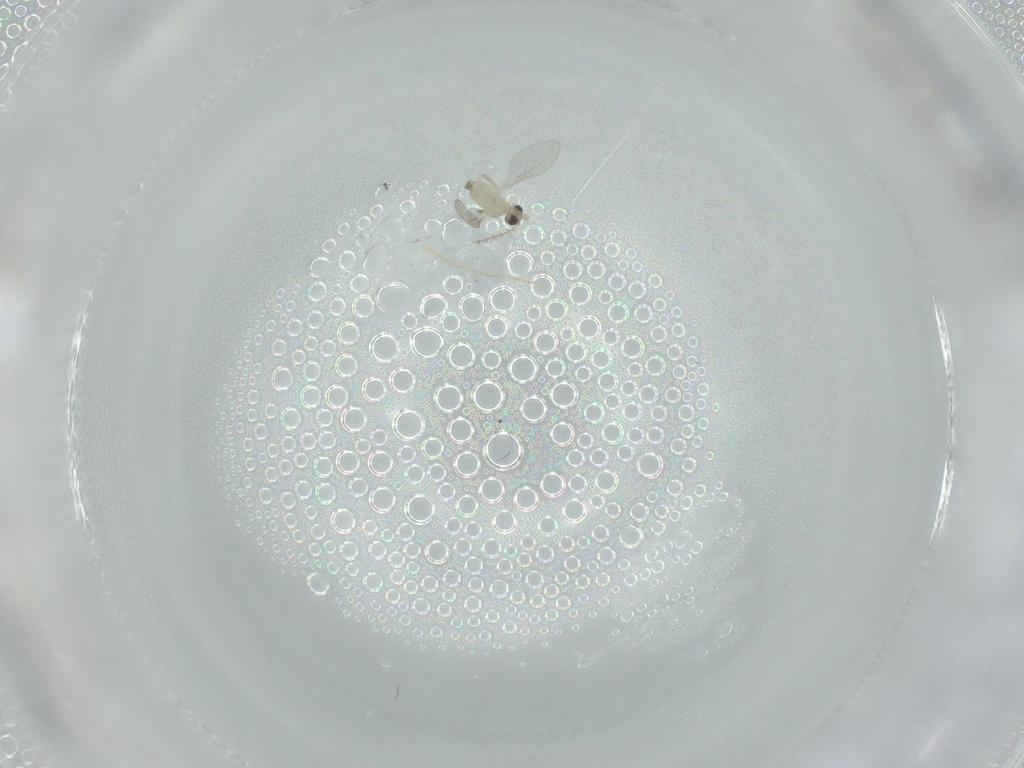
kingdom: Animalia
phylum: Arthropoda
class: Insecta
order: Diptera
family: Cecidomyiidae
